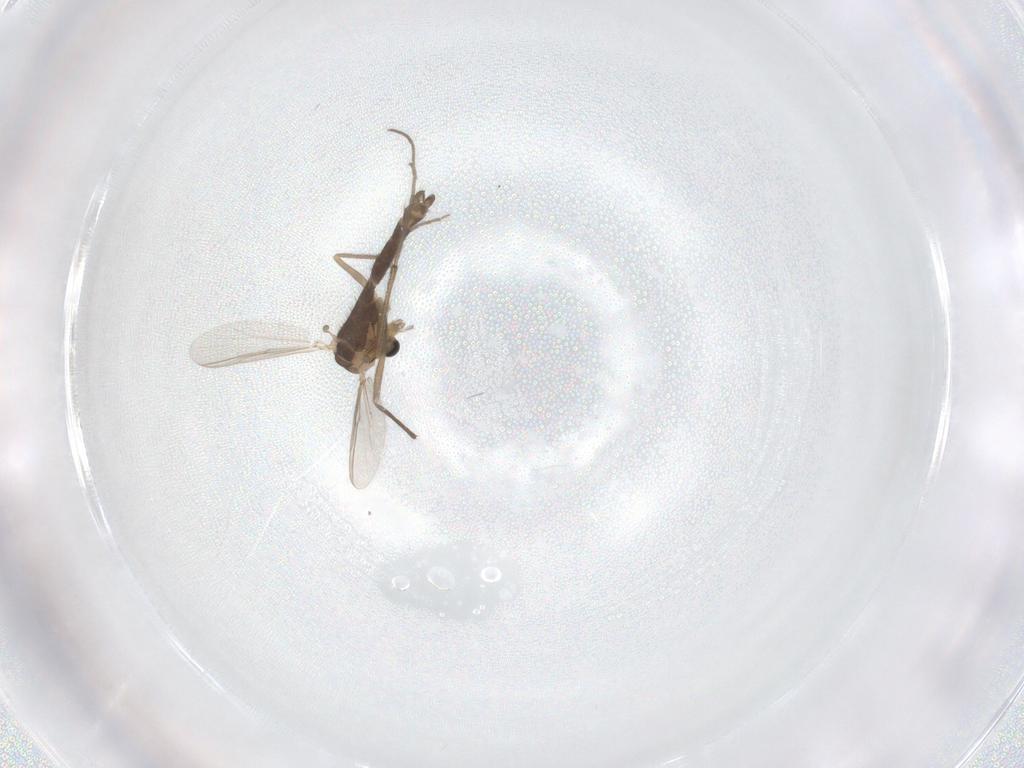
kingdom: Animalia
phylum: Arthropoda
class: Insecta
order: Diptera
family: Chironomidae
